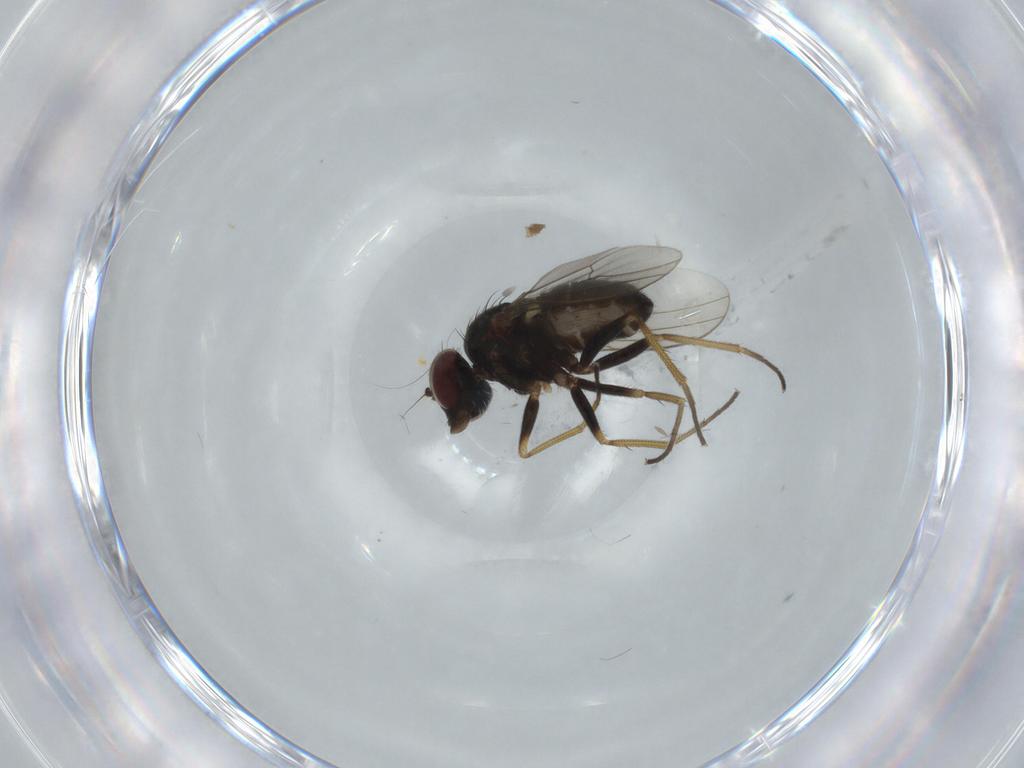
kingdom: Animalia
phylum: Arthropoda
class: Insecta
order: Diptera
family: Dolichopodidae
